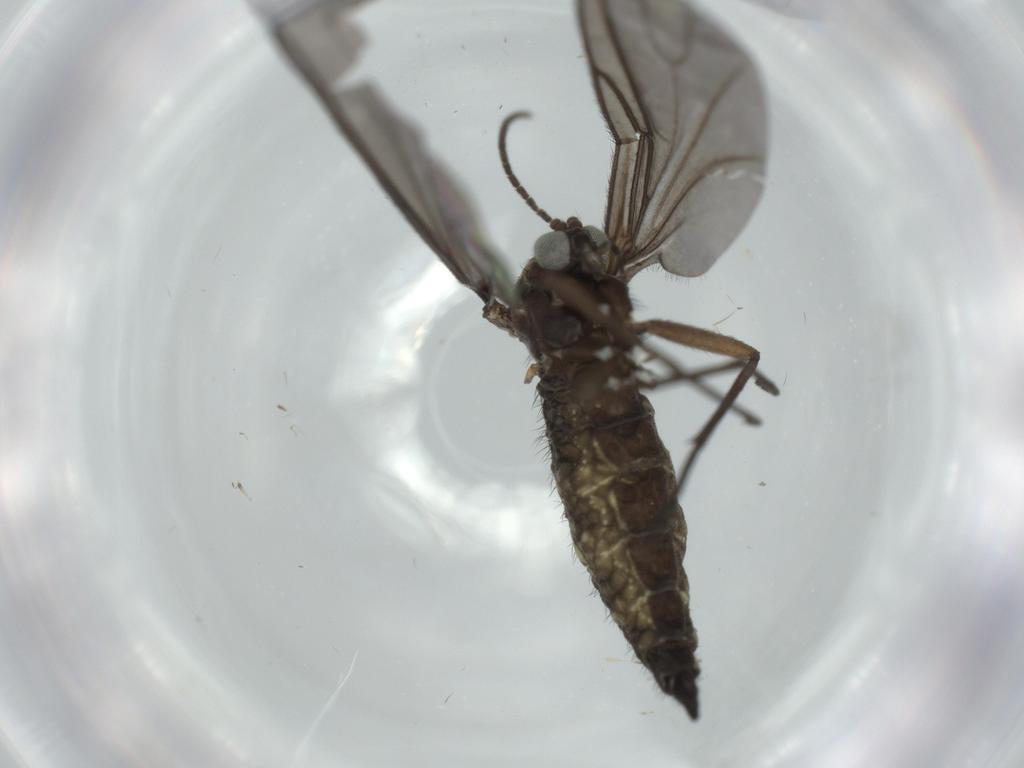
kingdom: Animalia
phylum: Arthropoda
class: Insecta
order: Diptera
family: Sciaridae
